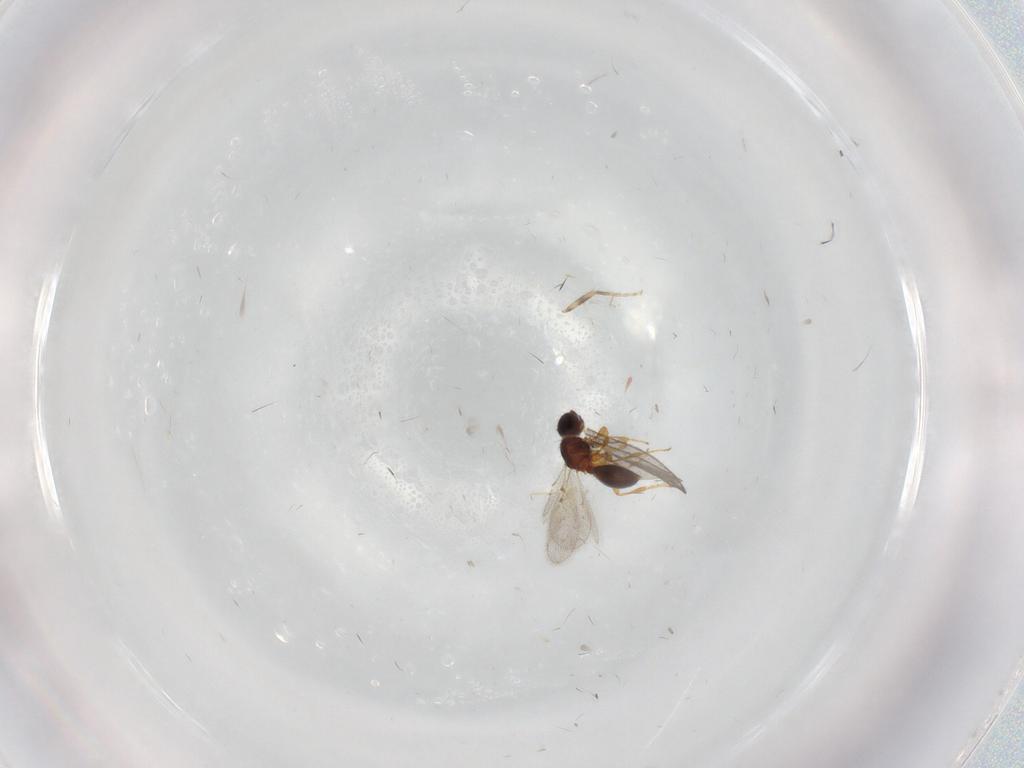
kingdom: Animalia
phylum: Arthropoda
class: Insecta
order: Hymenoptera
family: Diapriidae
